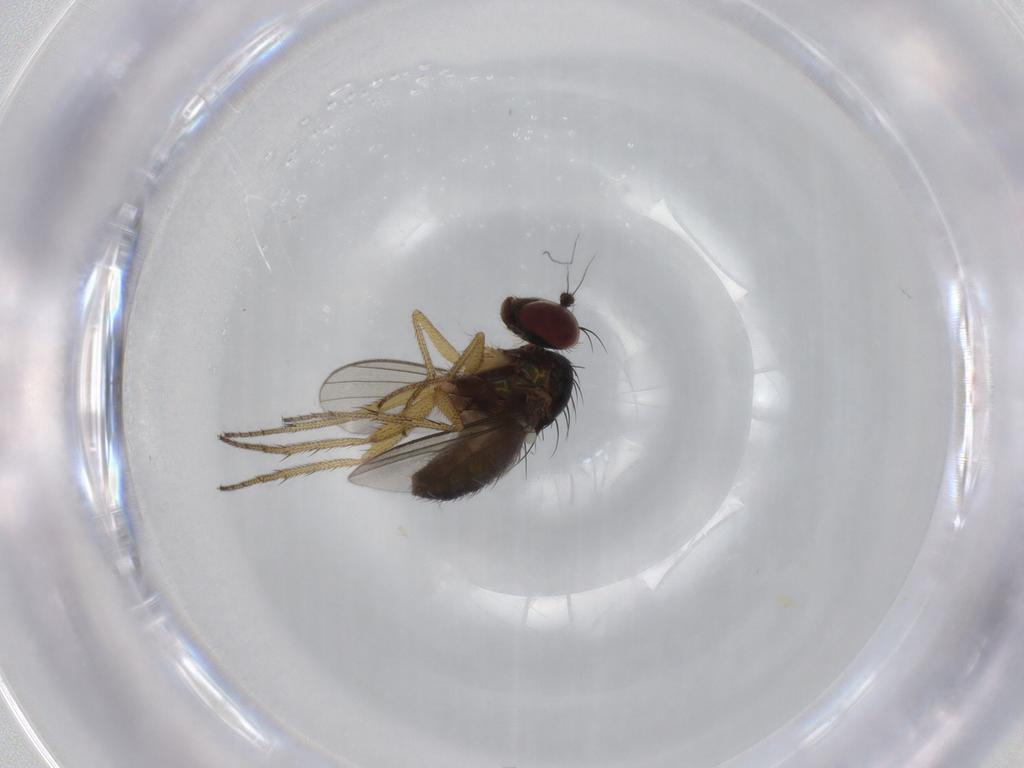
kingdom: Animalia
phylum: Arthropoda
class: Insecta
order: Diptera
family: Dolichopodidae
